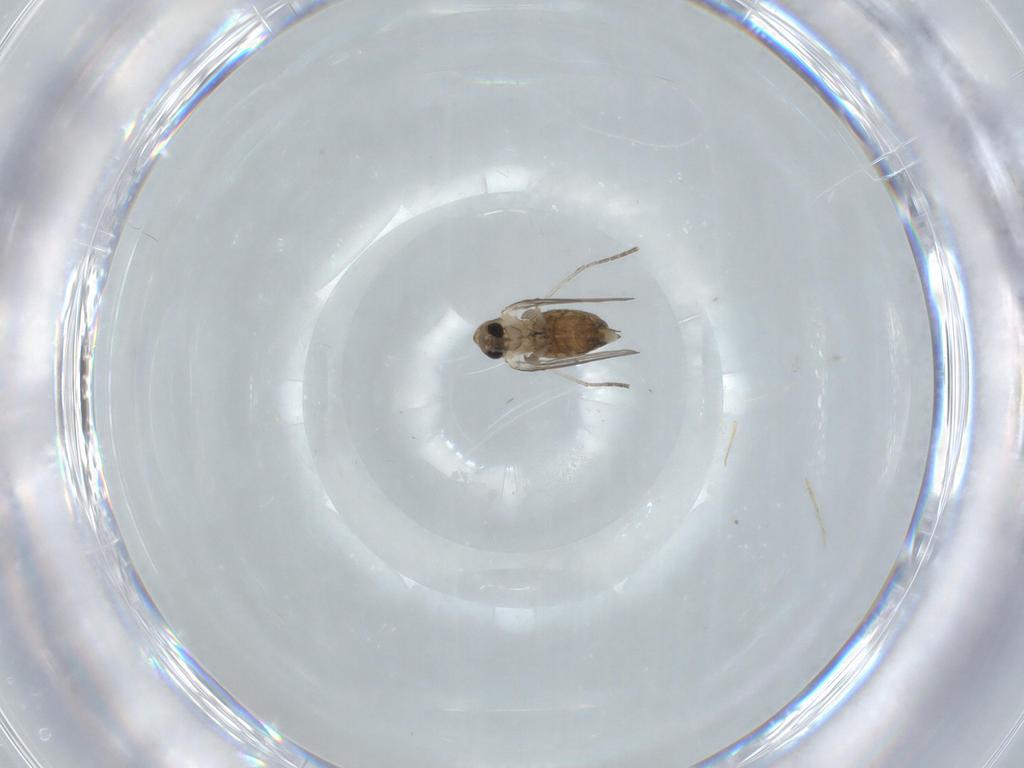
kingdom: Animalia
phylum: Arthropoda
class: Insecta
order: Diptera
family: Psychodidae
